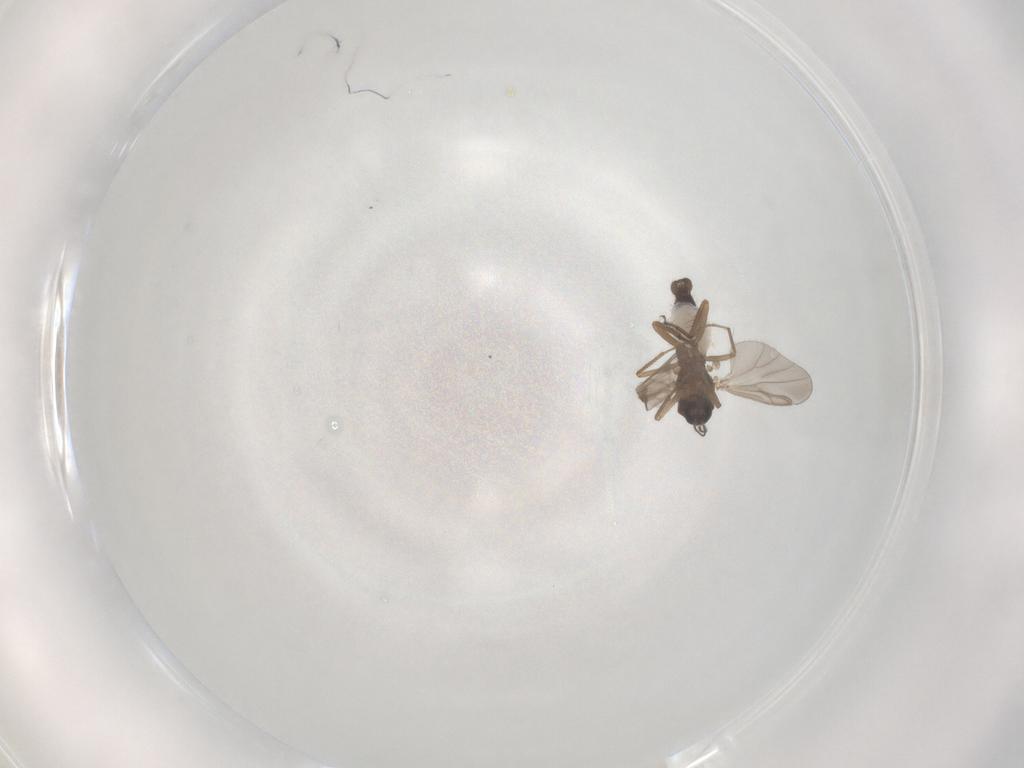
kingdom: Animalia
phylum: Arthropoda
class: Insecta
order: Diptera
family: Ceratopogonidae
